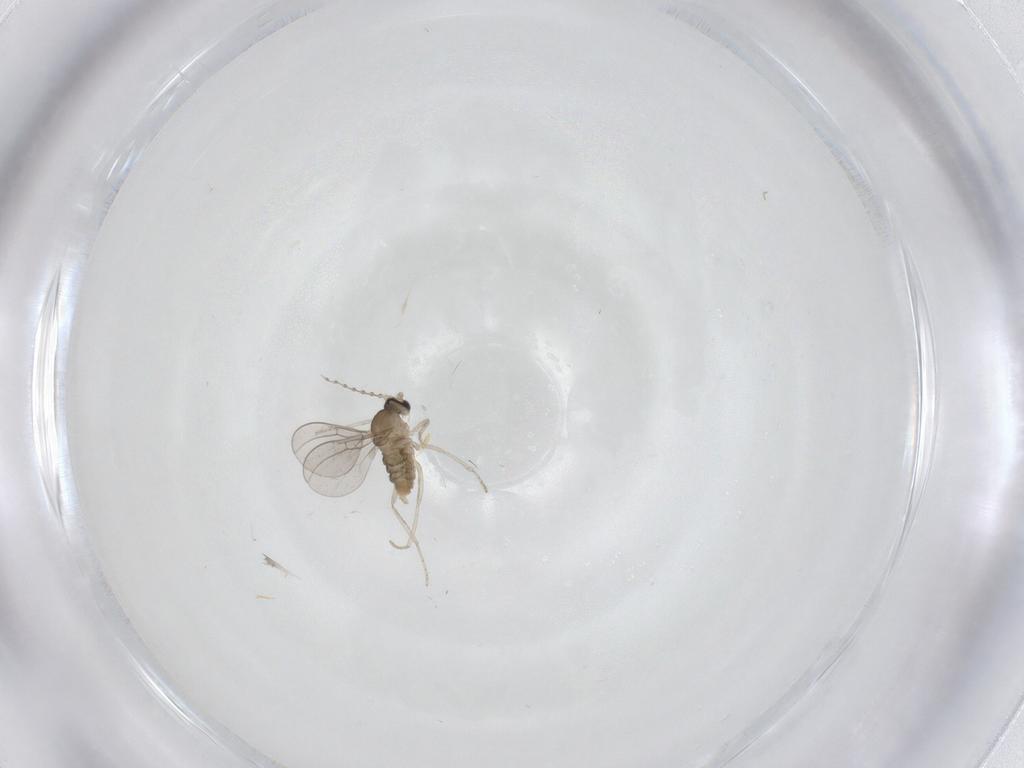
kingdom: Animalia
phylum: Arthropoda
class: Insecta
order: Diptera
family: Cecidomyiidae
